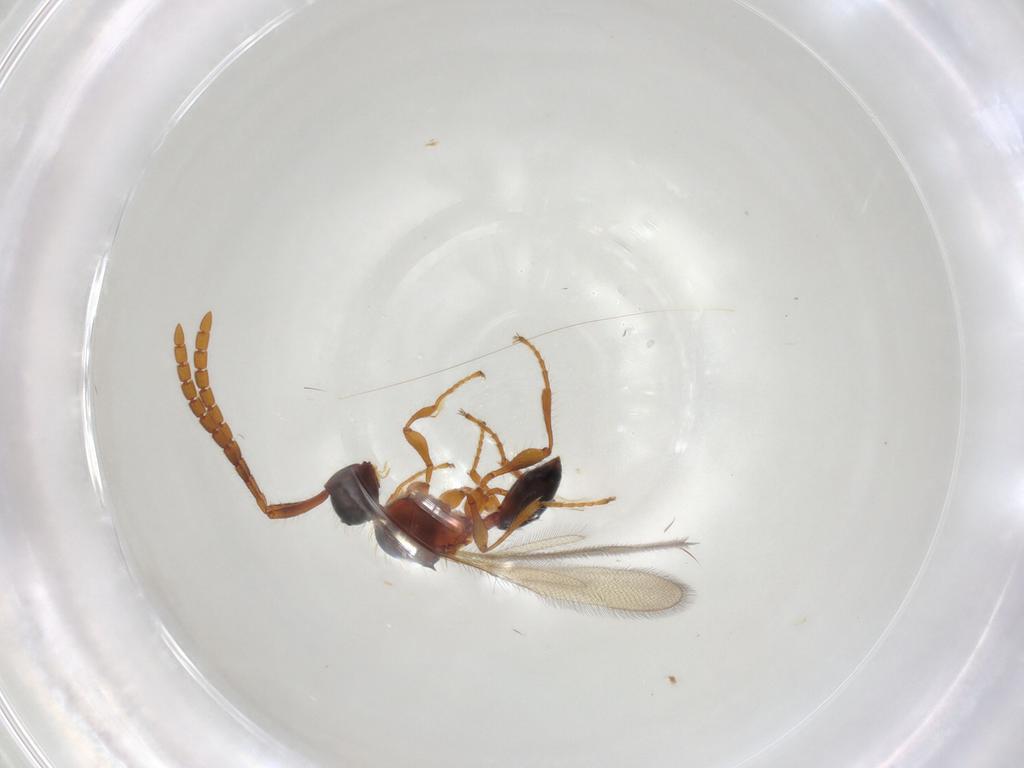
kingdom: Animalia
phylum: Arthropoda
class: Insecta
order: Hymenoptera
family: Diapriidae
